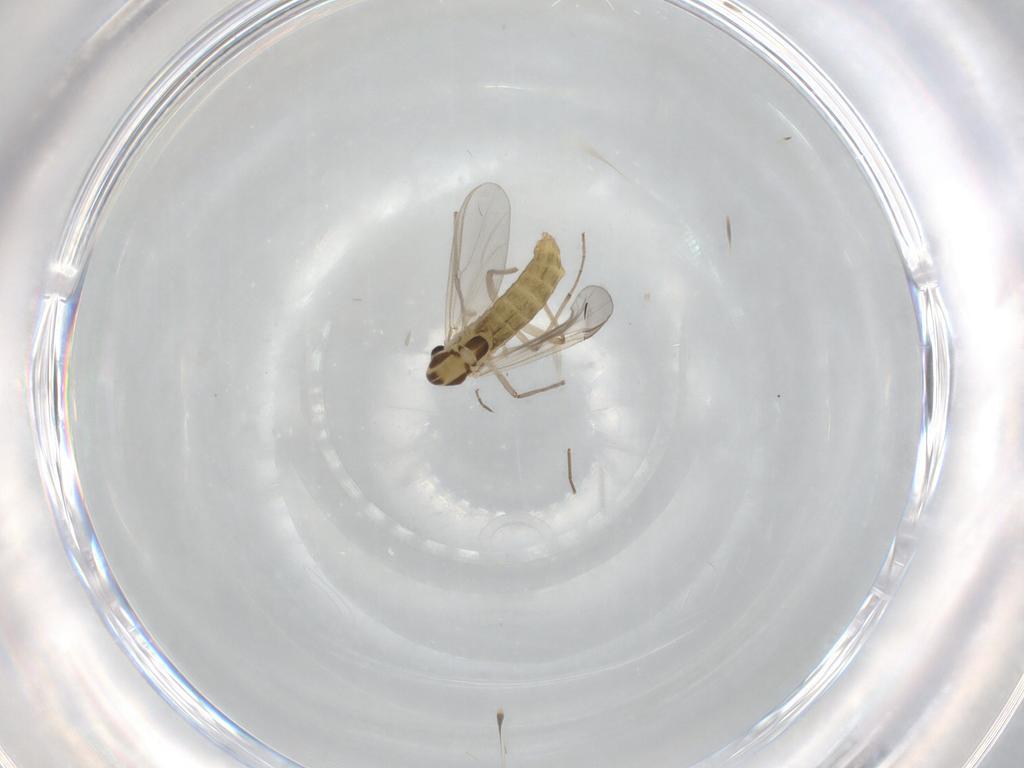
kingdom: Animalia
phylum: Arthropoda
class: Insecta
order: Diptera
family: Chironomidae
